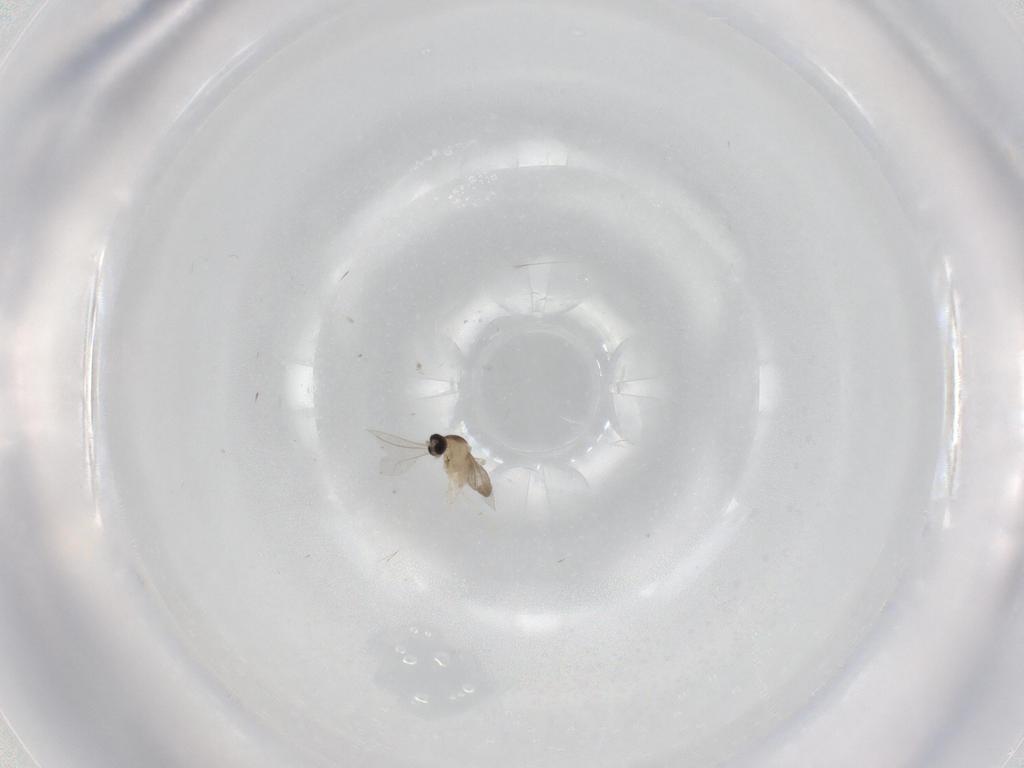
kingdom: Animalia
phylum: Arthropoda
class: Insecta
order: Diptera
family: Cecidomyiidae
